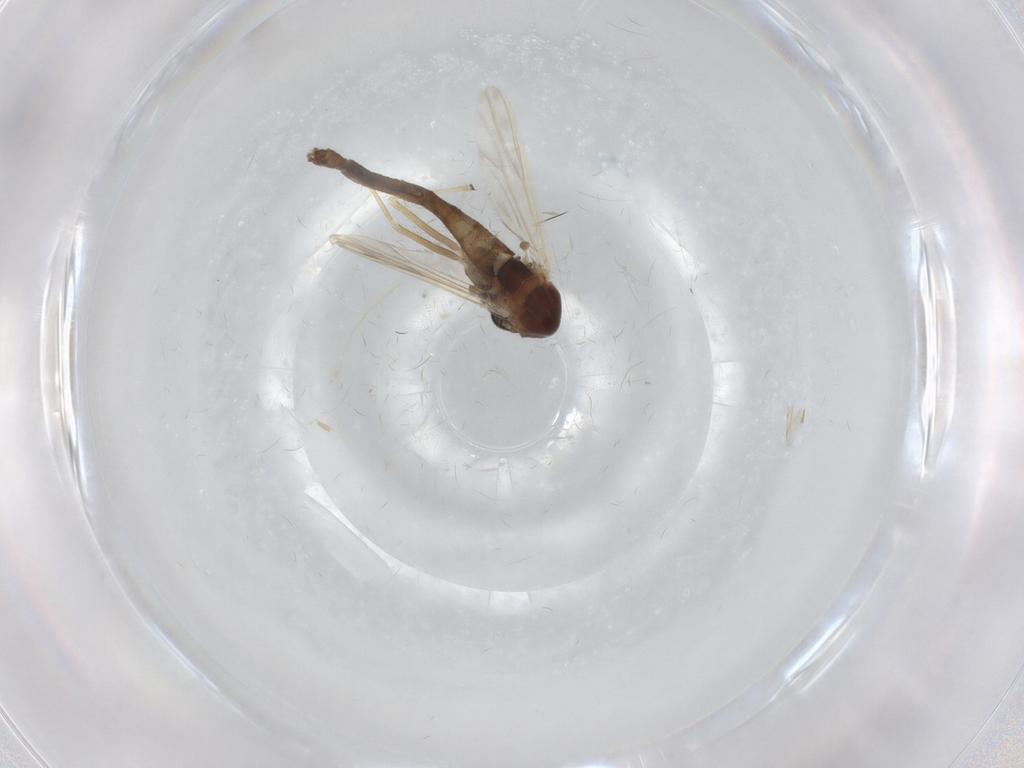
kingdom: Animalia
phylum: Arthropoda
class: Insecta
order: Diptera
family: Chironomidae
